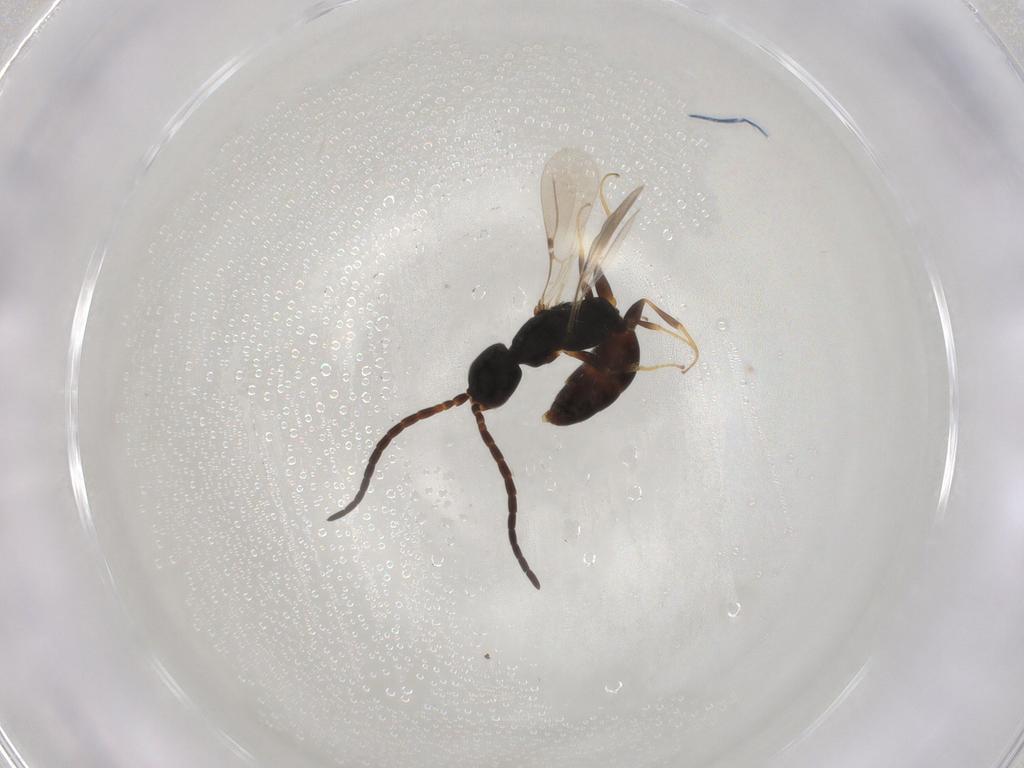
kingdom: Animalia
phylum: Arthropoda
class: Insecta
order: Hymenoptera
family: Bethylidae
